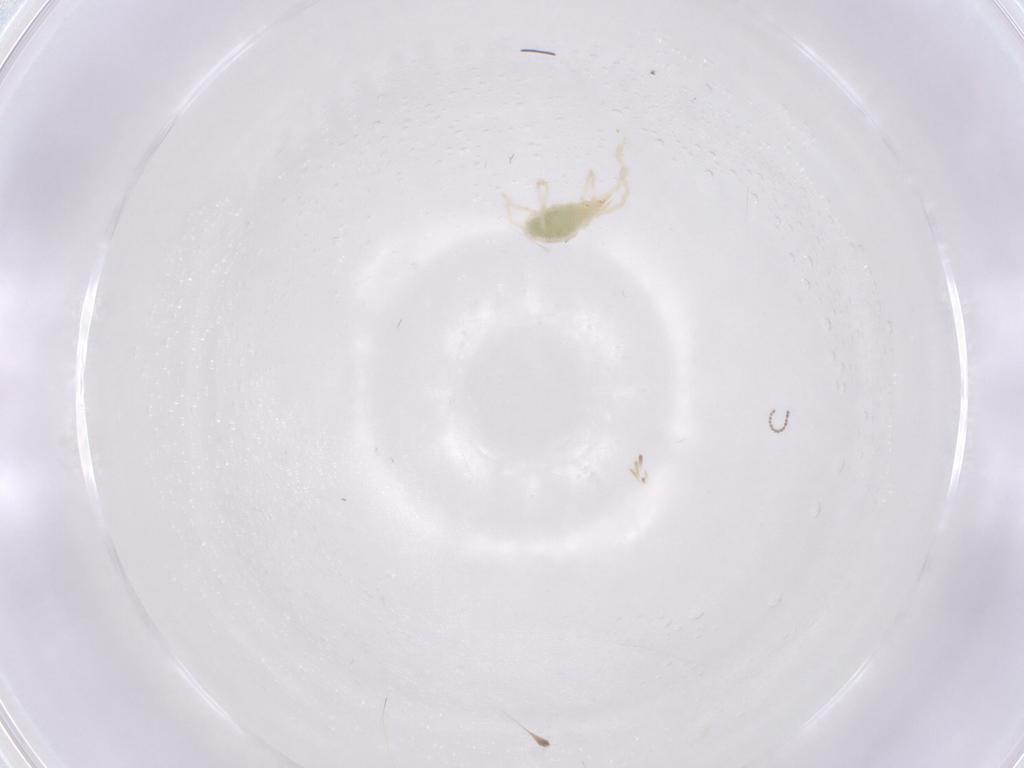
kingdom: Animalia
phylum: Arthropoda
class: Arachnida
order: Trombidiformes
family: Erythraeidae
